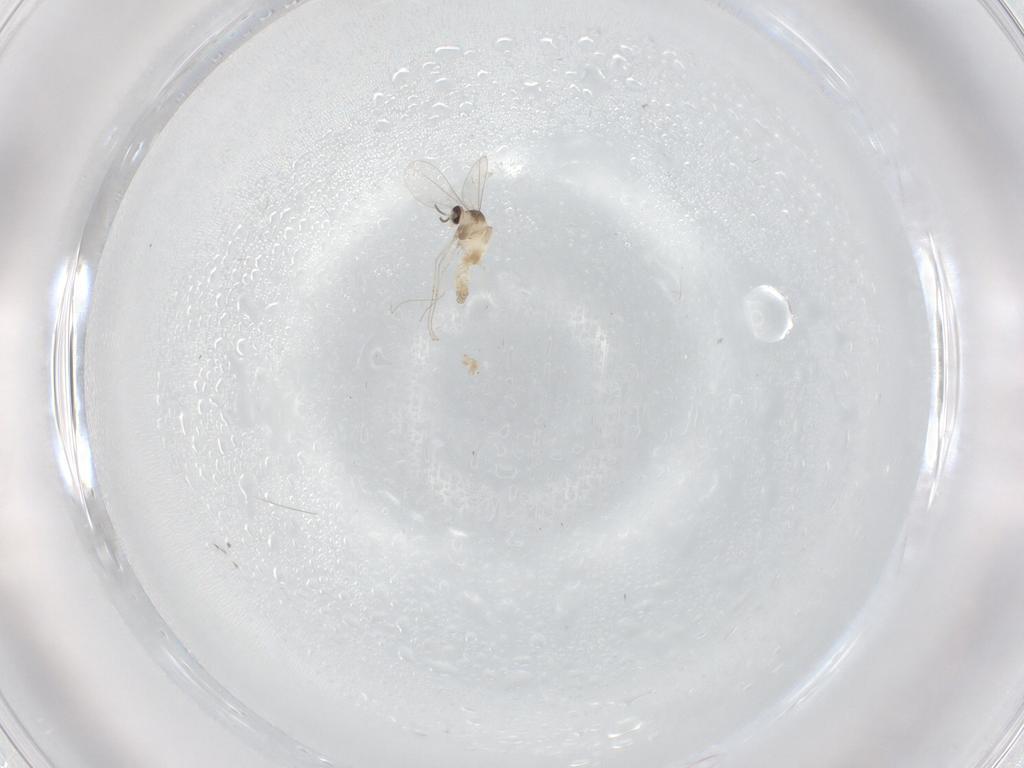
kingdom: Animalia
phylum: Arthropoda
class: Insecta
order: Diptera
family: Cecidomyiidae
